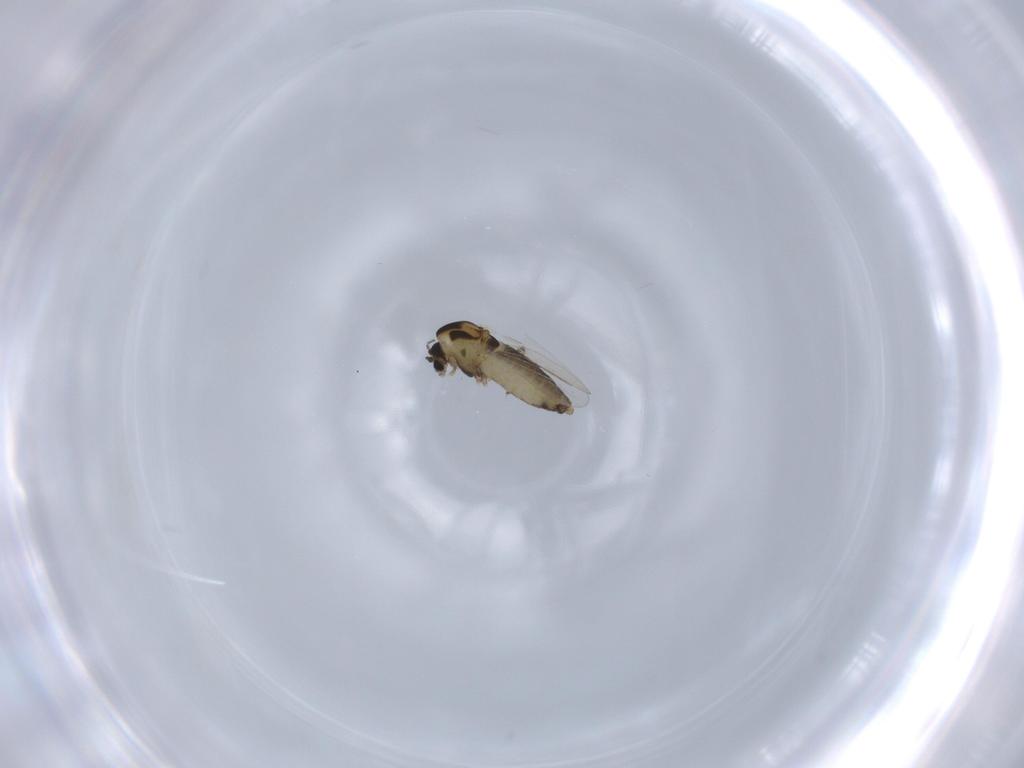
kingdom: Animalia
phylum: Arthropoda
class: Insecta
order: Diptera
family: Chironomidae
